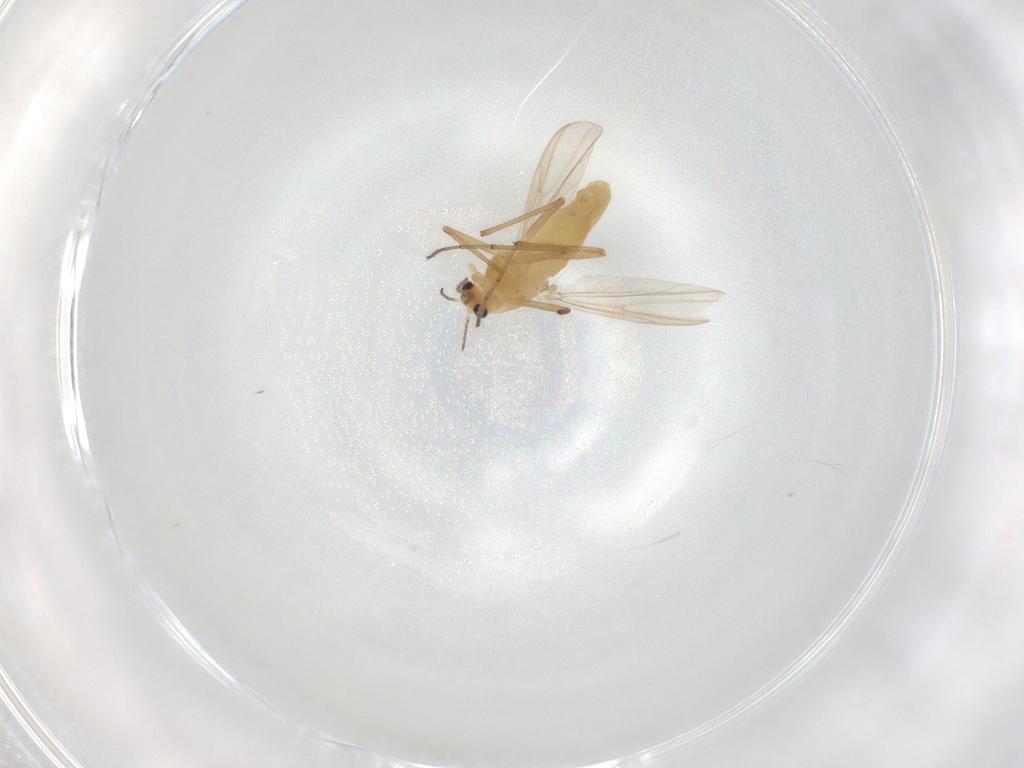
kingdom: Animalia
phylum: Arthropoda
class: Insecta
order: Diptera
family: Chironomidae
